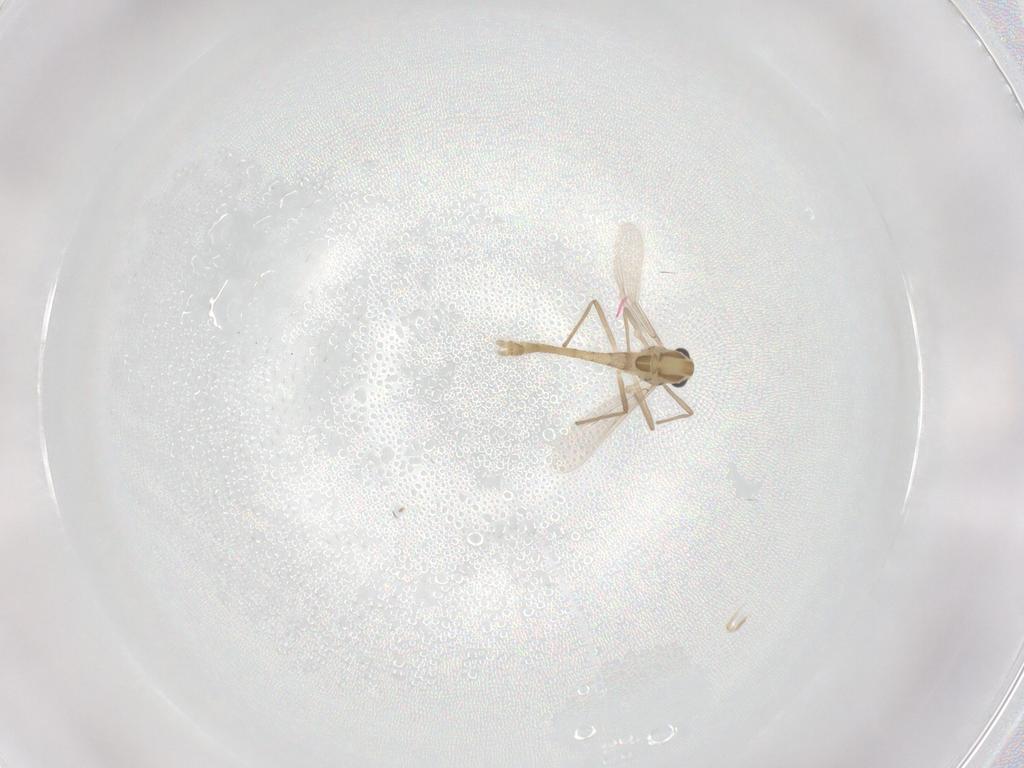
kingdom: Animalia
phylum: Arthropoda
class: Insecta
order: Diptera
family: Chironomidae
